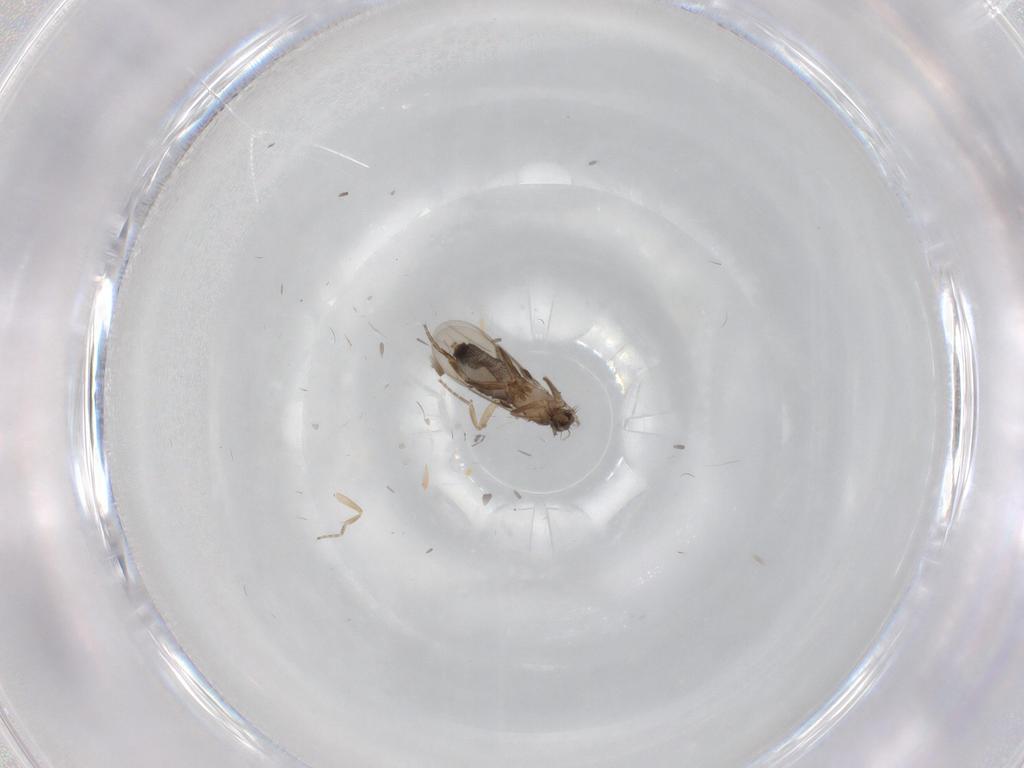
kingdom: Animalia
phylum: Arthropoda
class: Insecta
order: Diptera
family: Phoridae
